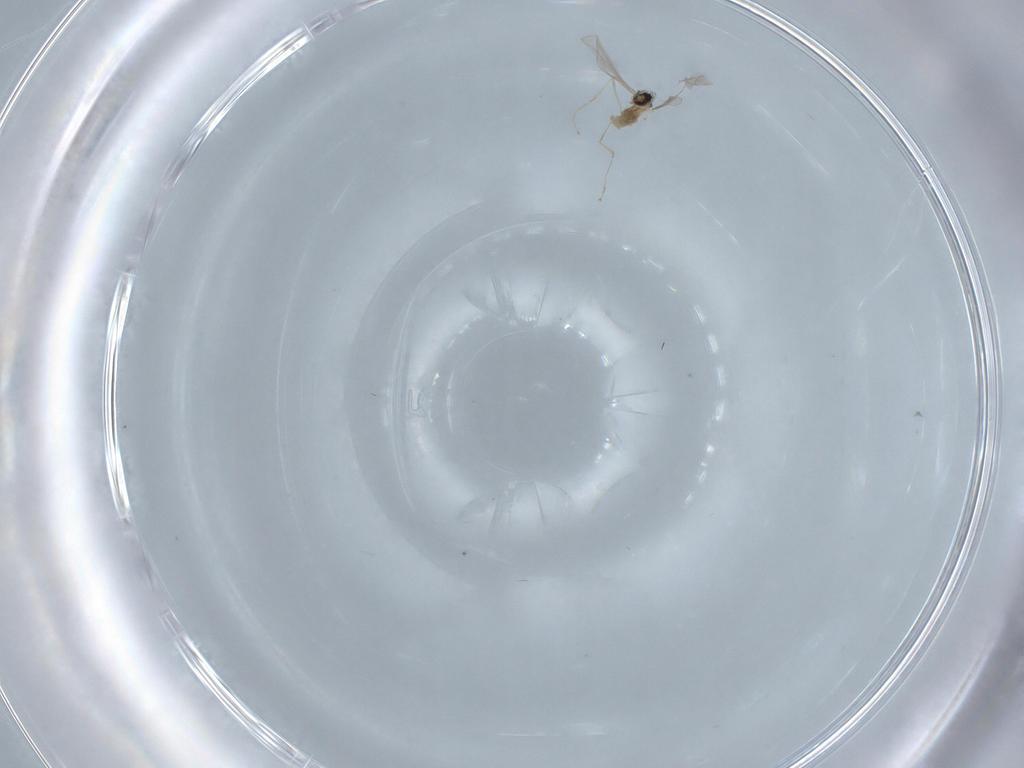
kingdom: Animalia
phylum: Arthropoda
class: Insecta
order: Diptera
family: Cecidomyiidae
